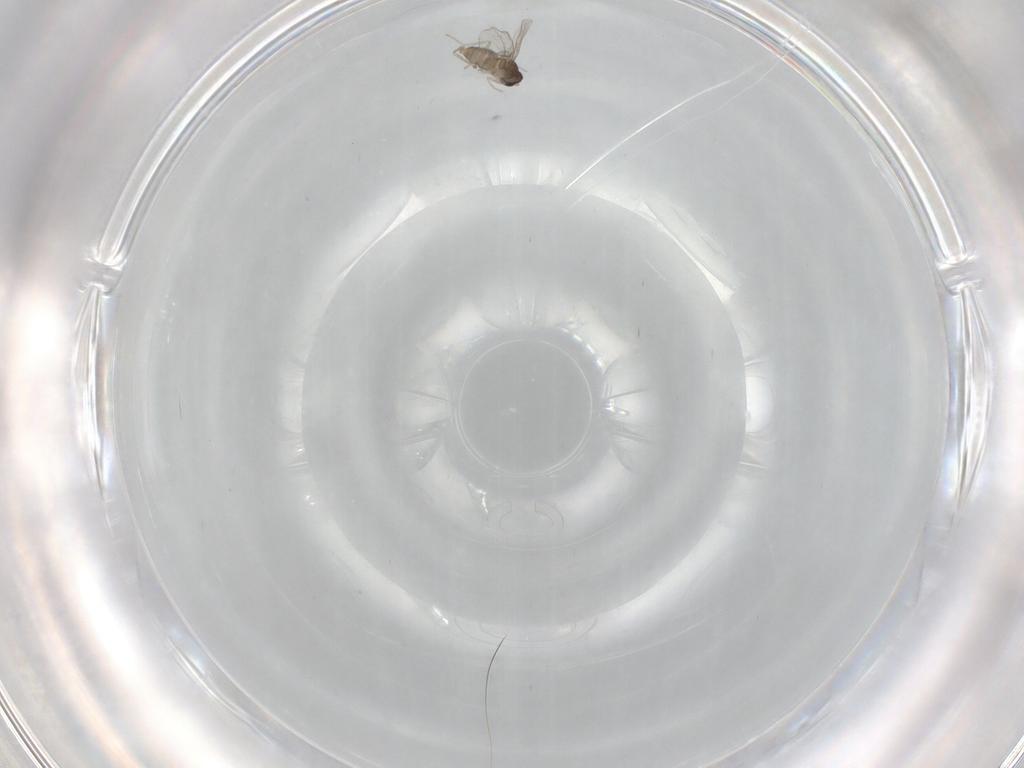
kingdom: Animalia
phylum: Arthropoda
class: Insecta
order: Diptera
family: Cecidomyiidae
